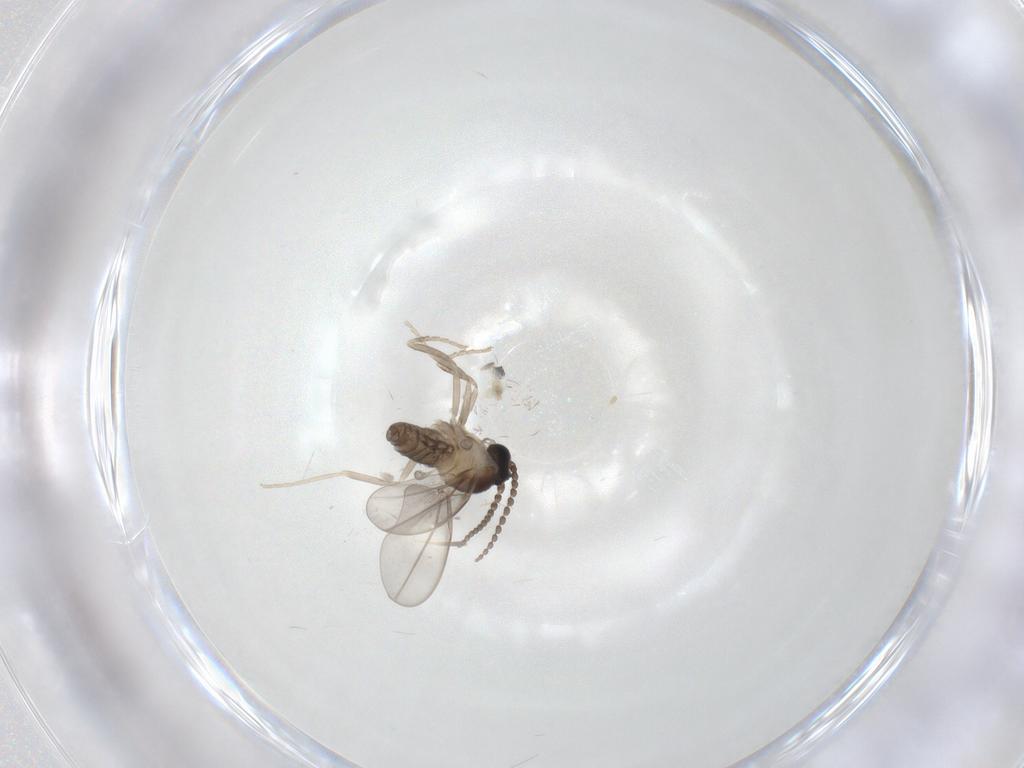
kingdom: Animalia
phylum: Arthropoda
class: Insecta
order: Diptera
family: Cecidomyiidae
